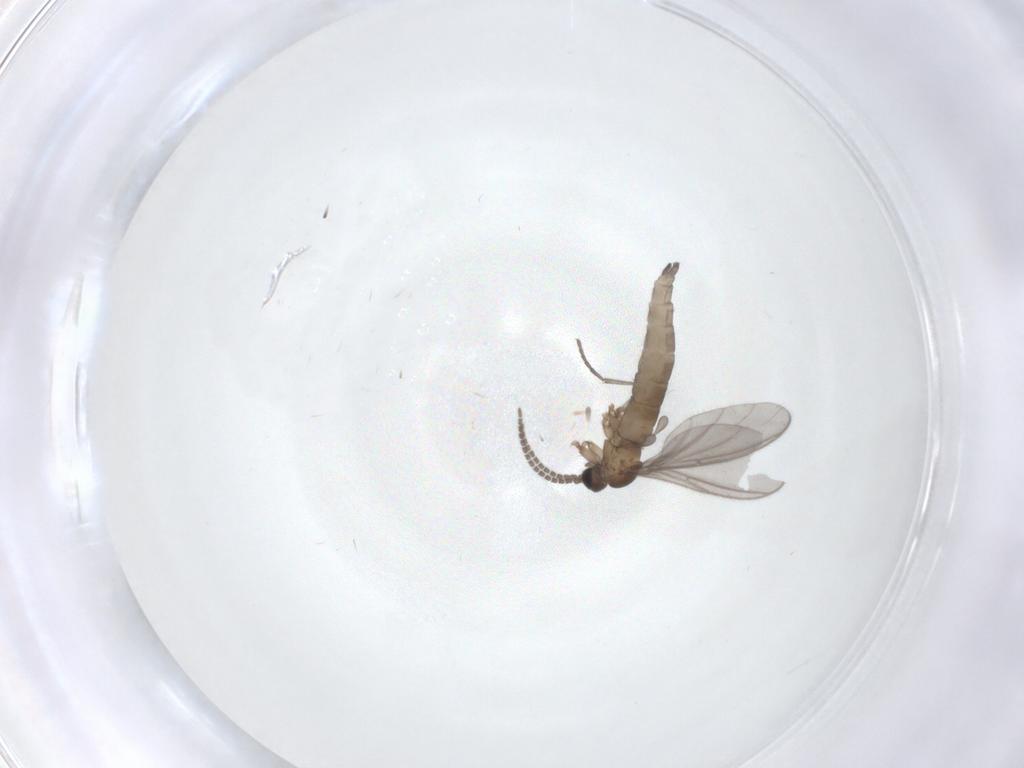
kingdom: Animalia
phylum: Arthropoda
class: Insecta
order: Diptera
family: Sciaridae
